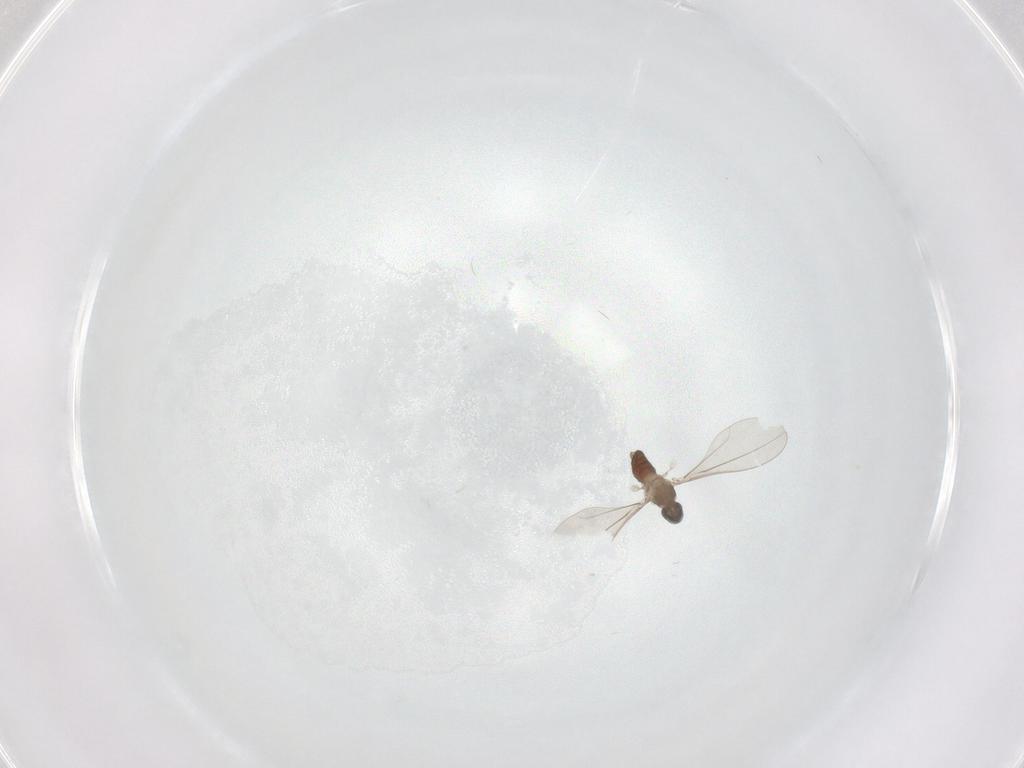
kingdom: Animalia
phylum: Arthropoda
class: Insecta
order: Diptera
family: Cecidomyiidae
